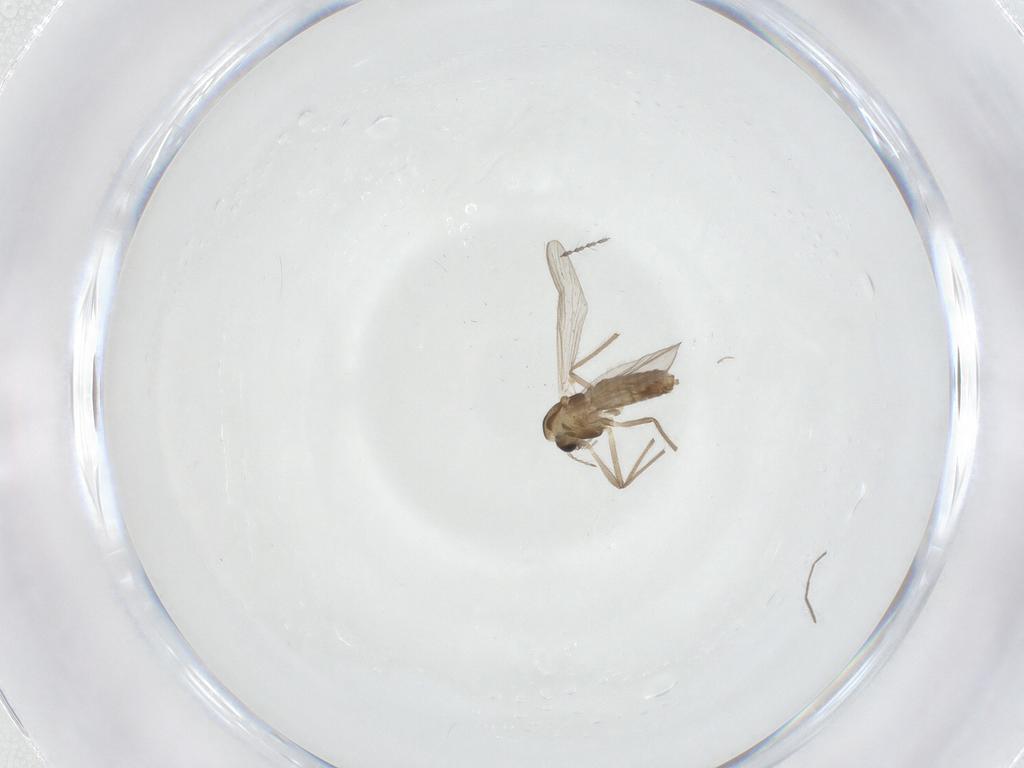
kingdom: Animalia
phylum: Arthropoda
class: Insecta
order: Diptera
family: Chironomidae
